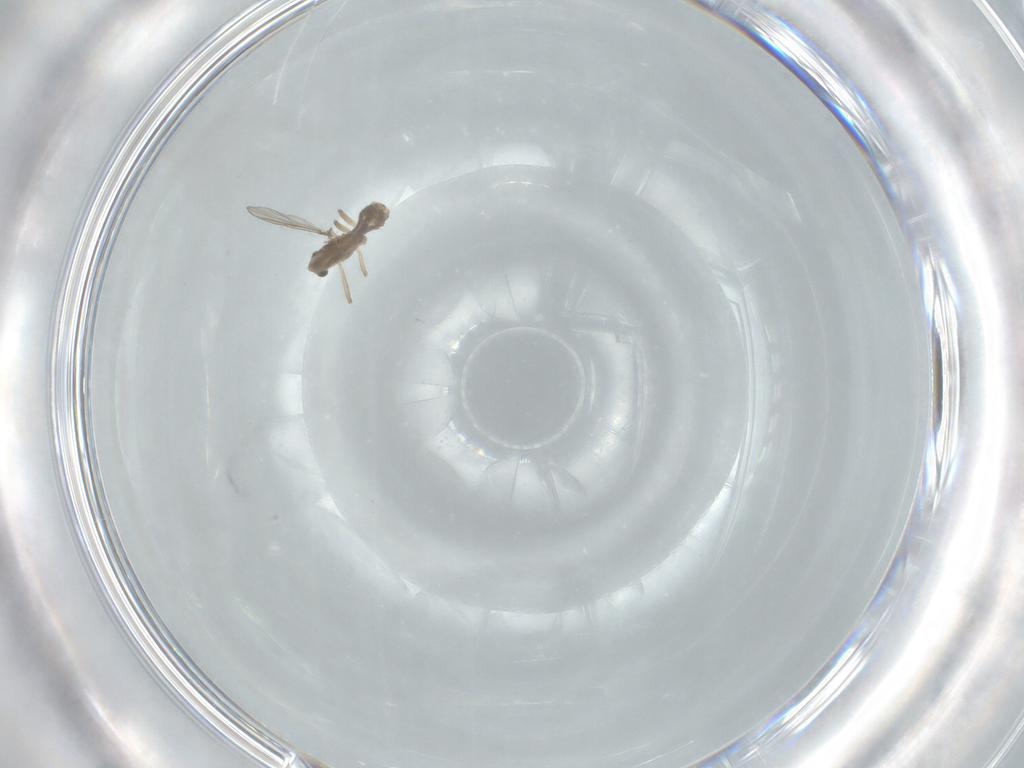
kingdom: Animalia
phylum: Arthropoda
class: Insecta
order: Diptera
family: Chironomidae
